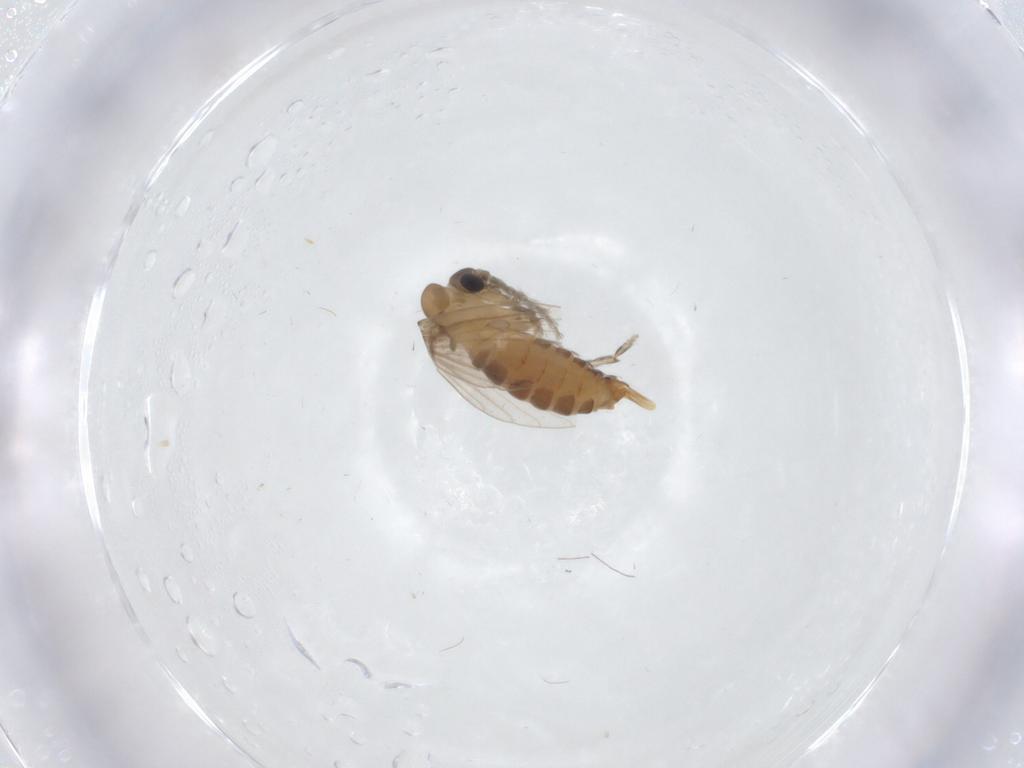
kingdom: Animalia
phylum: Arthropoda
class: Insecta
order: Diptera
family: Psychodidae
